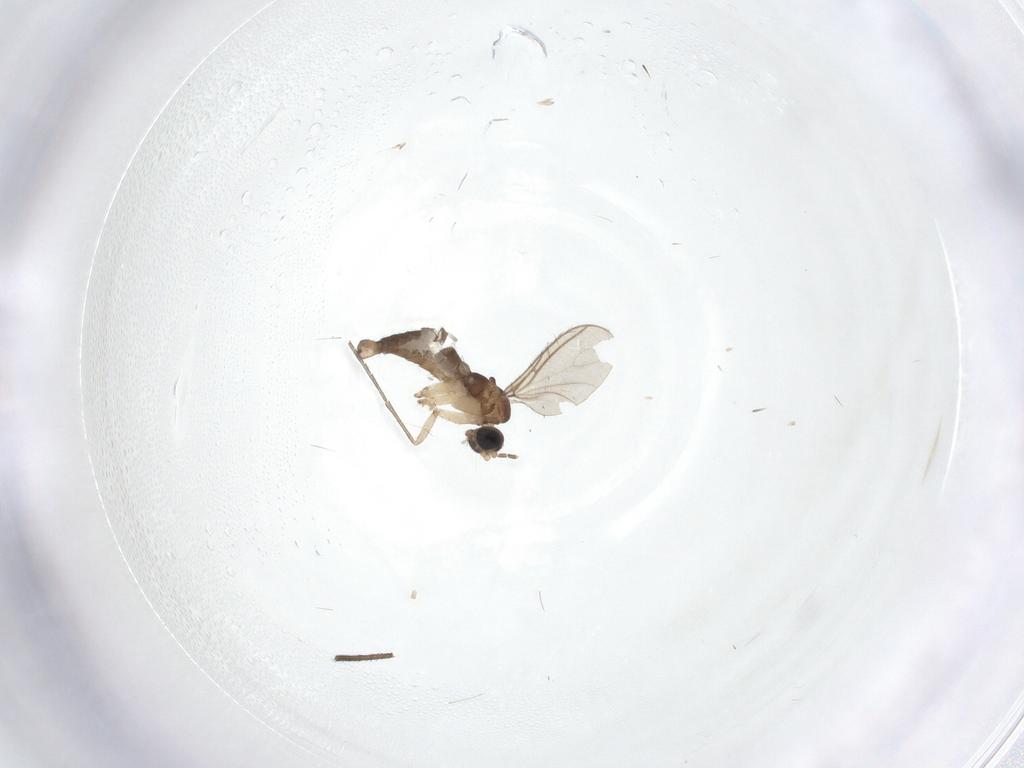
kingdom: Animalia
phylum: Arthropoda
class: Insecta
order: Diptera
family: Sciaridae
